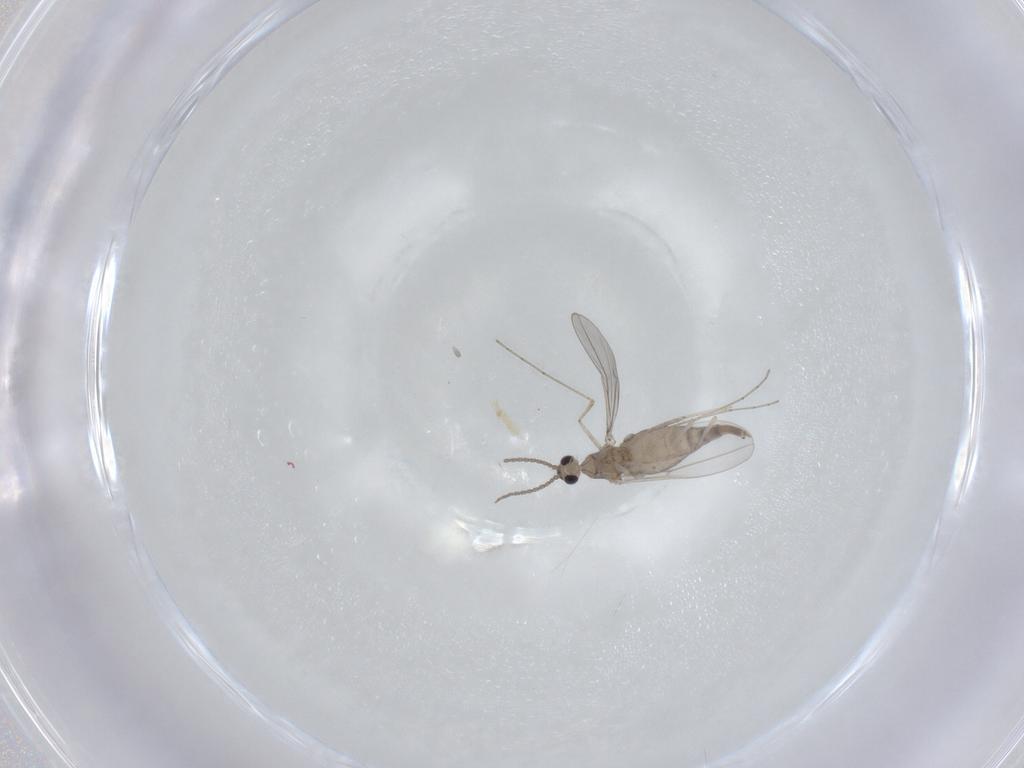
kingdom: Animalia
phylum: Arthropoda
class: Insecta
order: Diptera
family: Cecidomyiidae
